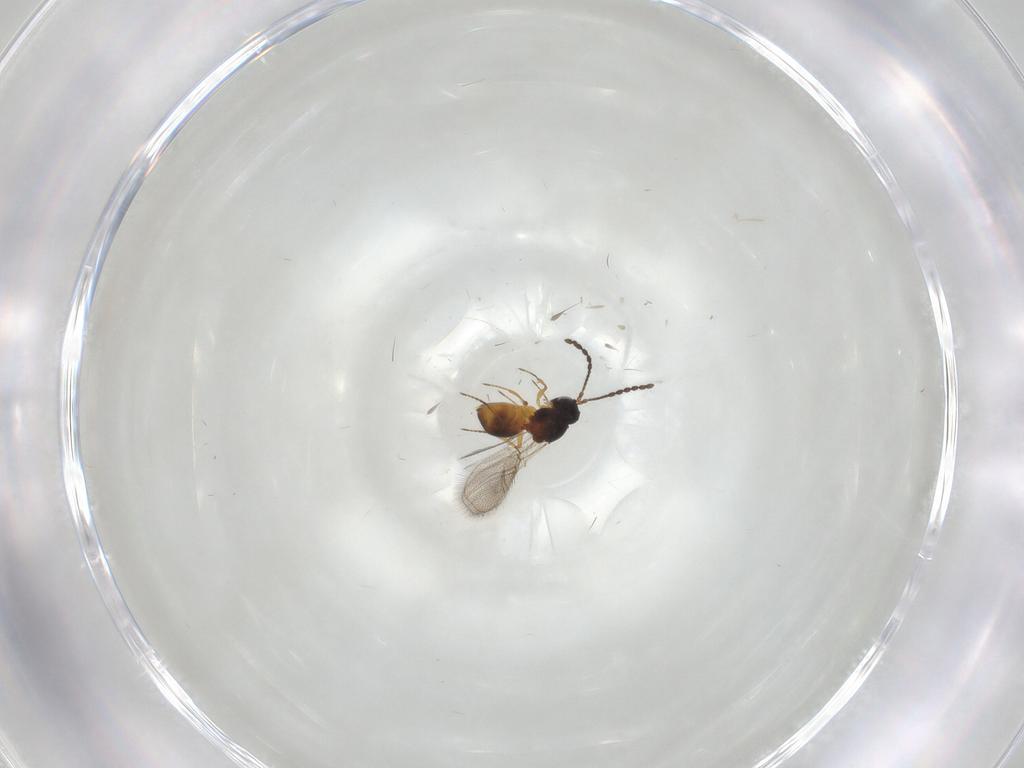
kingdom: Animalia
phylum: Arthropoda
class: Insecta
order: Hymenoptera
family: Figitidae
